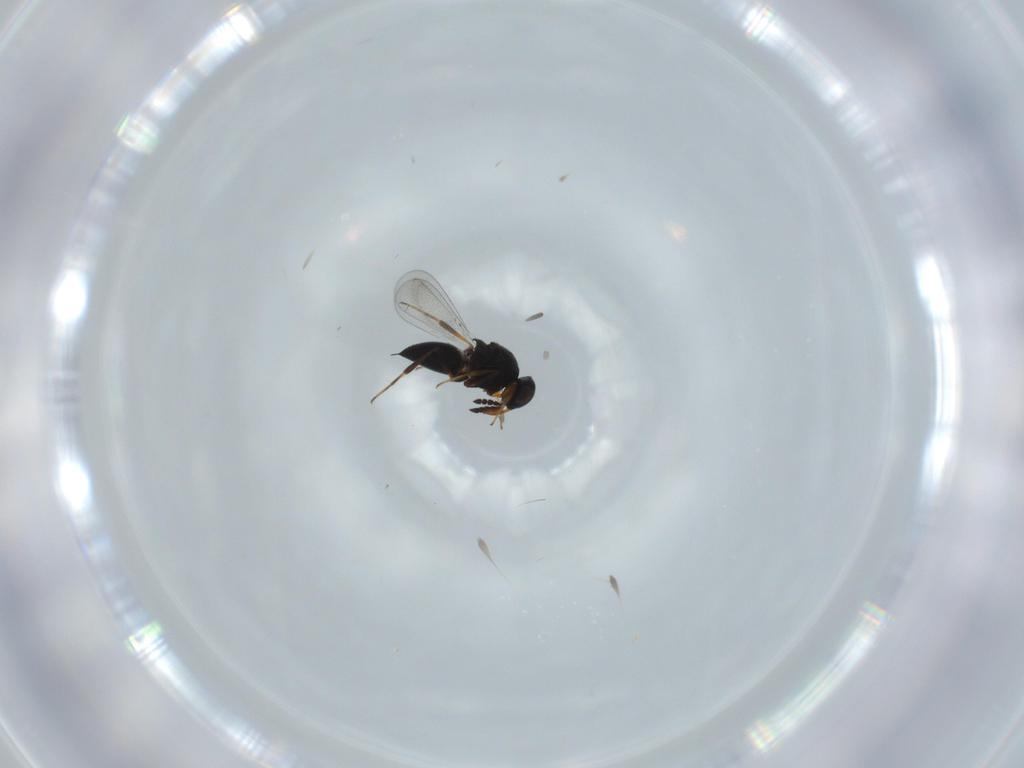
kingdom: Animalia
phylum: Arthropoda
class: Insecta
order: Hymenoptera
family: Platygastridae
